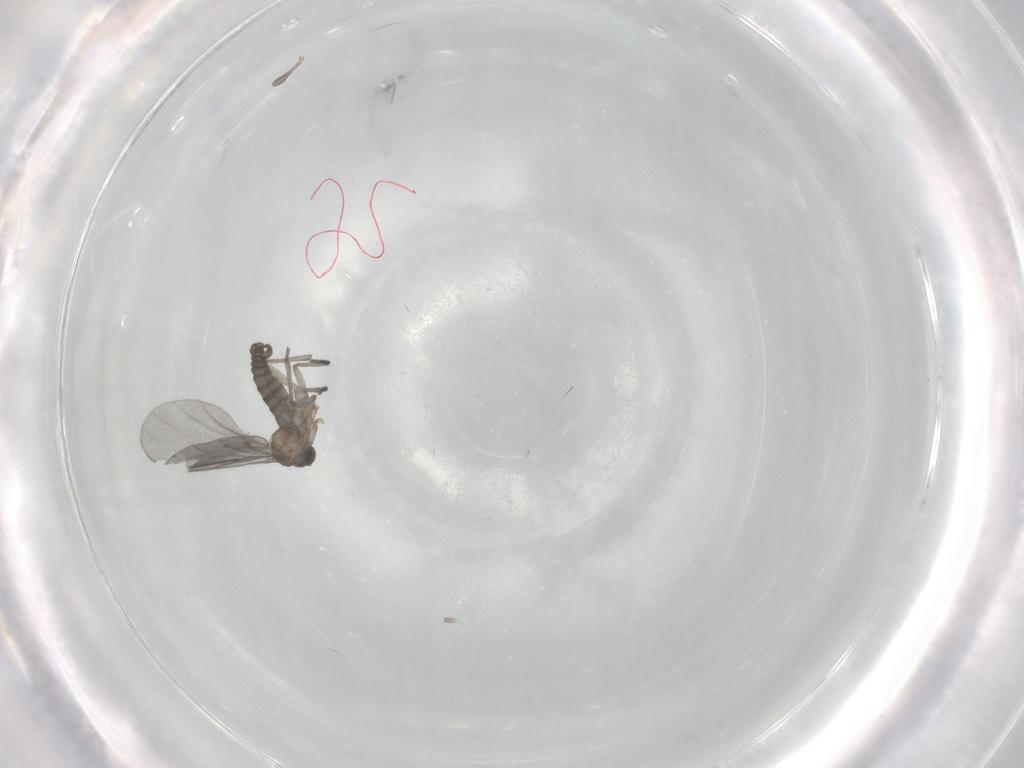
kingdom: Animalia
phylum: Arthropoda
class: Insecta
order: Diptera
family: Sciaridae
